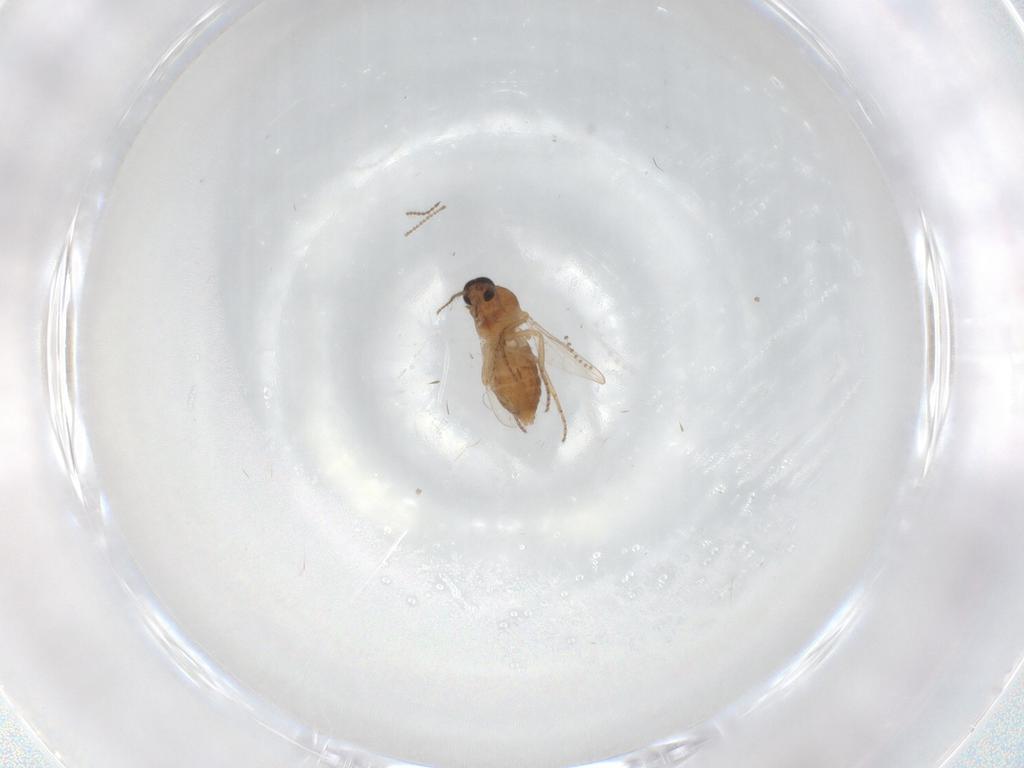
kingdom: Animalia
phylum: Arthropoda
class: Insecta
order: Diptera
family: Ceratopogonidae
